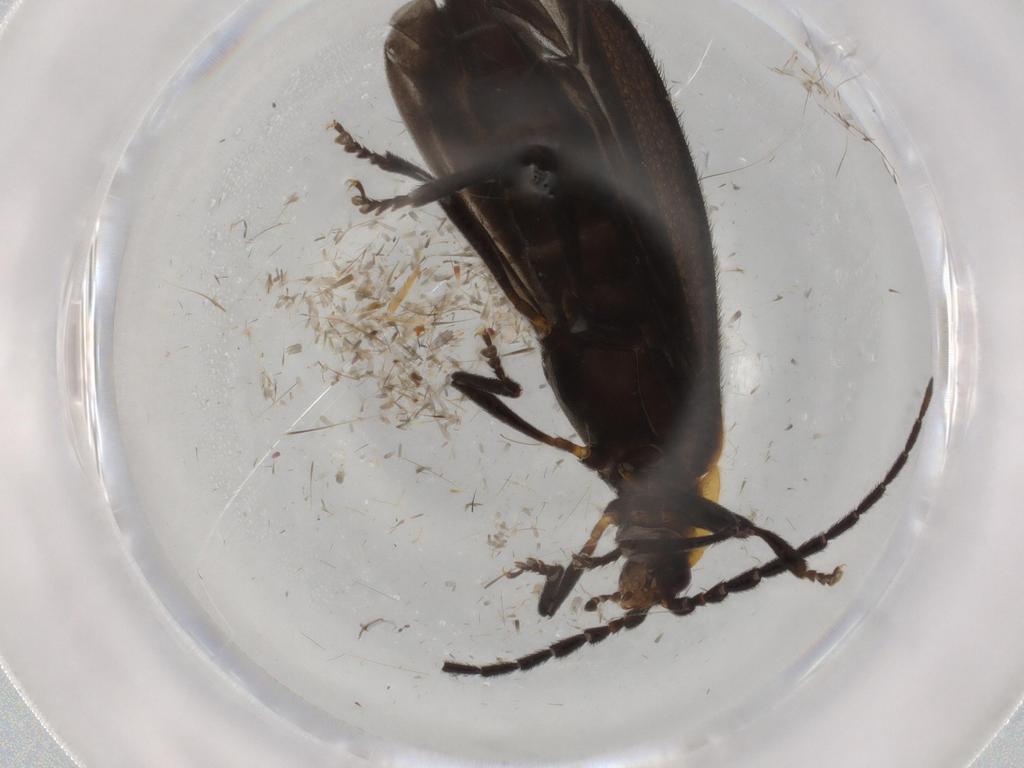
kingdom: Animalia
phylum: Arthropoda
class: Insecta
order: Coleoptera
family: Lycidae
